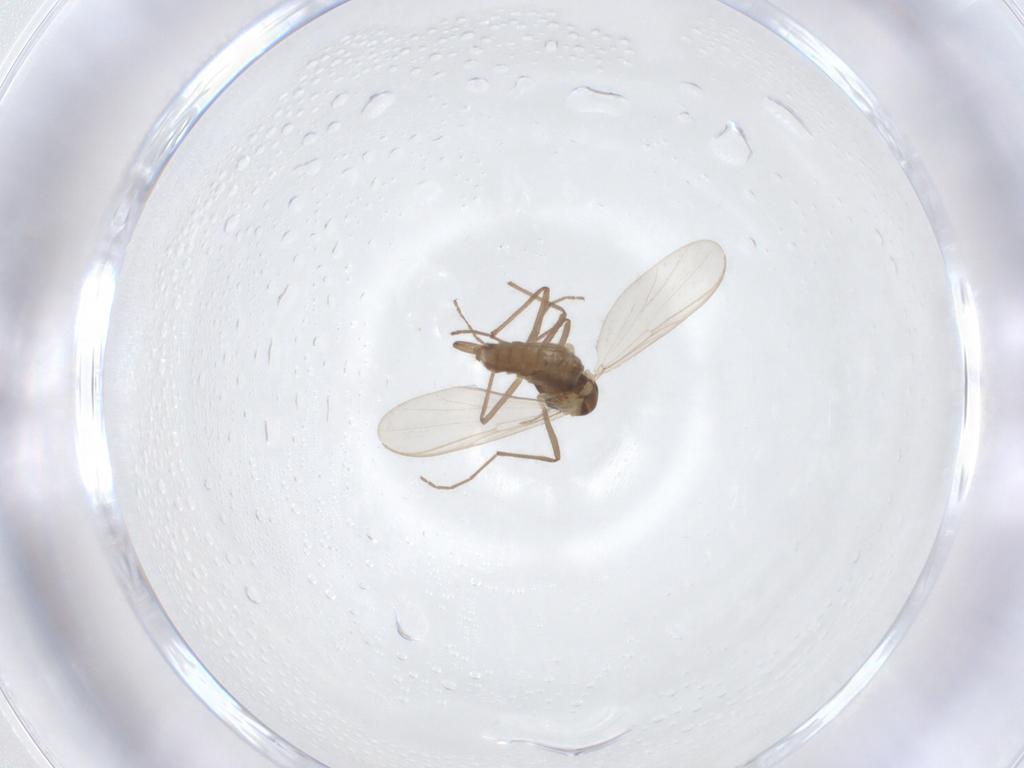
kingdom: Animalia
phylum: Arthropoda
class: Insecta
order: Diptera
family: Chironomidae
